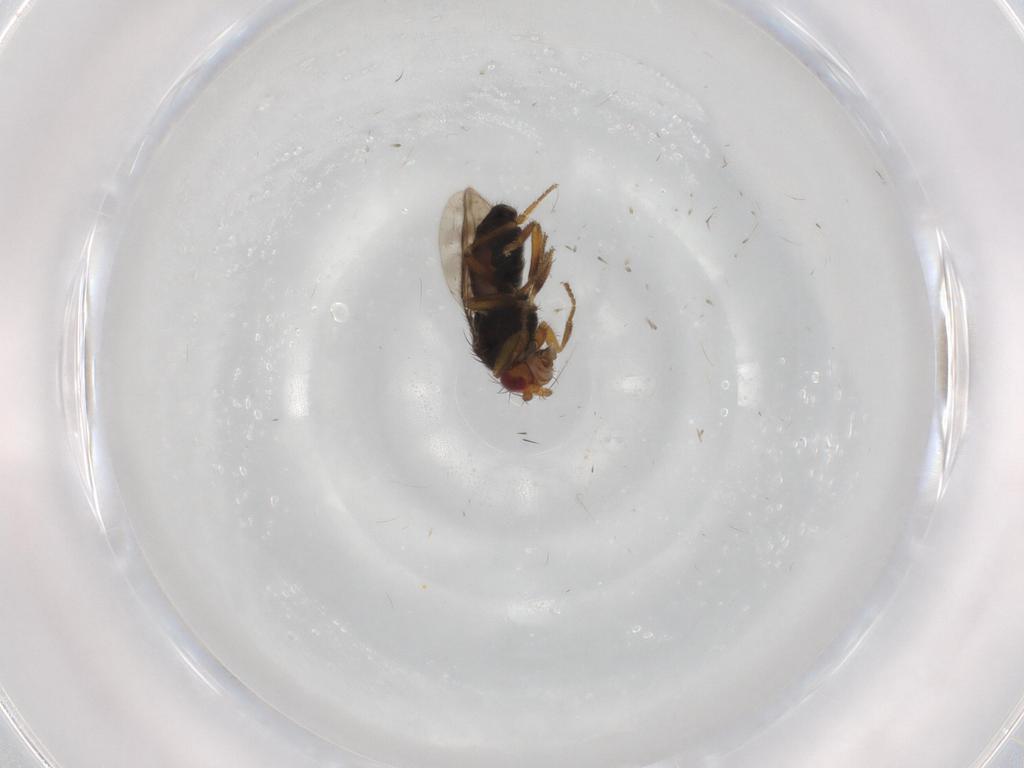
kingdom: Animalia
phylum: Arthropoda
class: Insecta
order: Diptera
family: Sphaeroceridae
